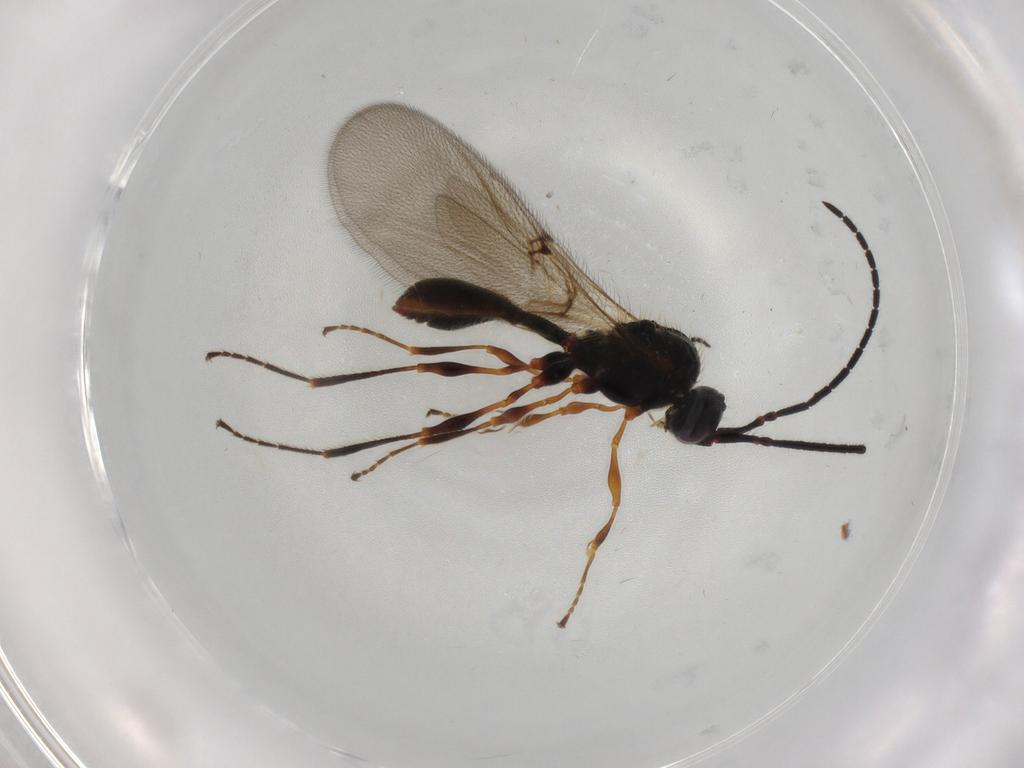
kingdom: Animalia
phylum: Arthropoda
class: Insecta
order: Hymenoptera
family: Diapriidae
